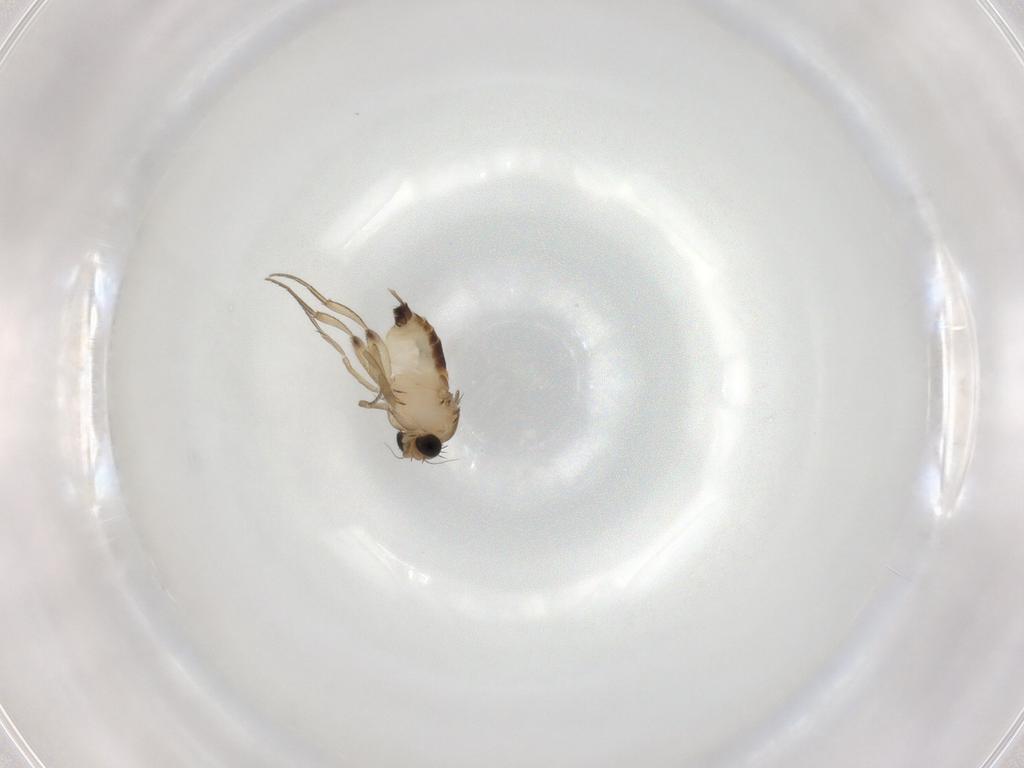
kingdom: Animalia
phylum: Arthropoda
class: Insecta
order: Diptera
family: Phoridae
